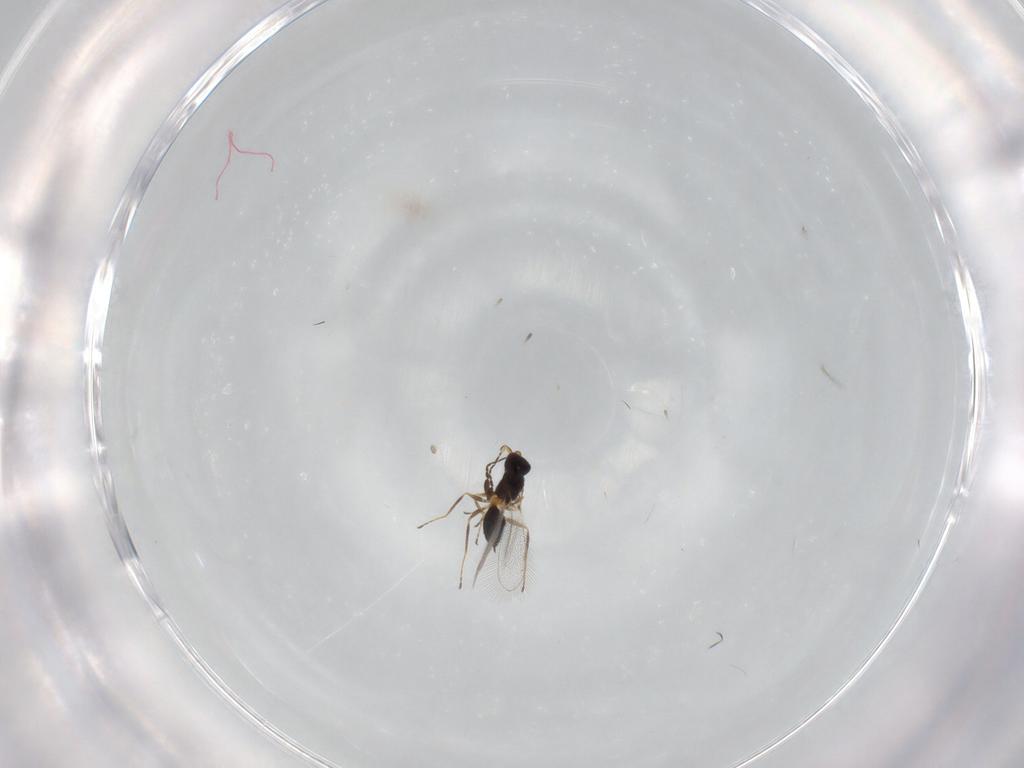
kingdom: Animalia
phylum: Arthropoda
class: Insecta
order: Hymenoptera
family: Mymaridae
